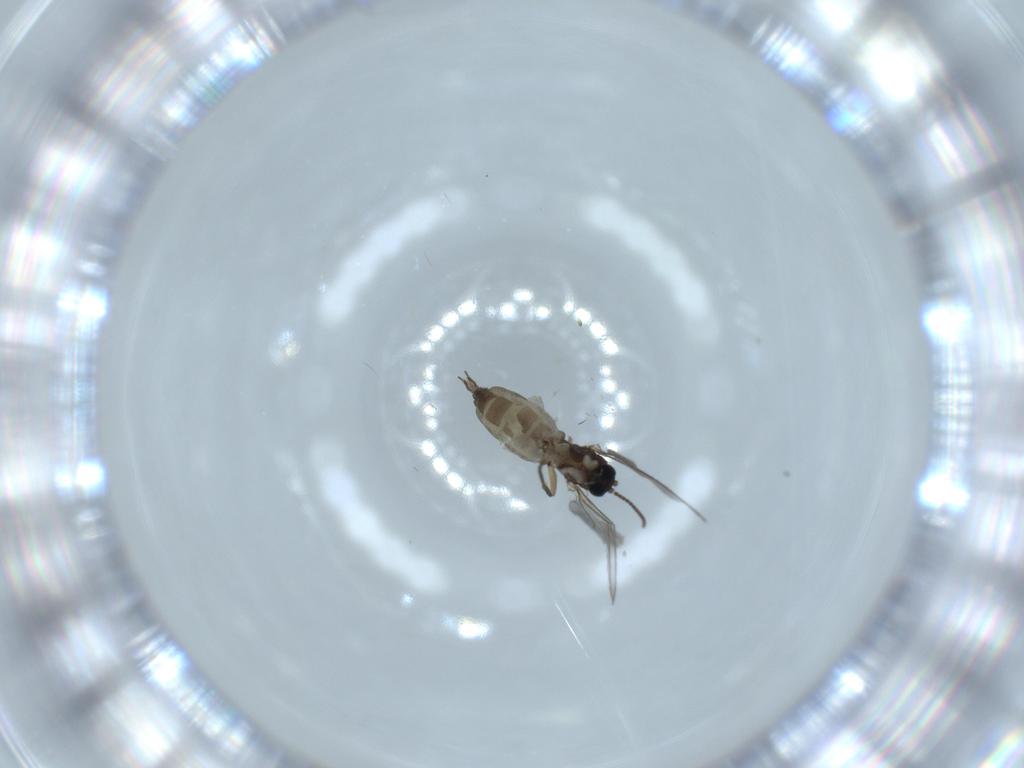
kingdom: Animalia
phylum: Arthropoda
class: Insecta
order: Diptera
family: Sciaridae
